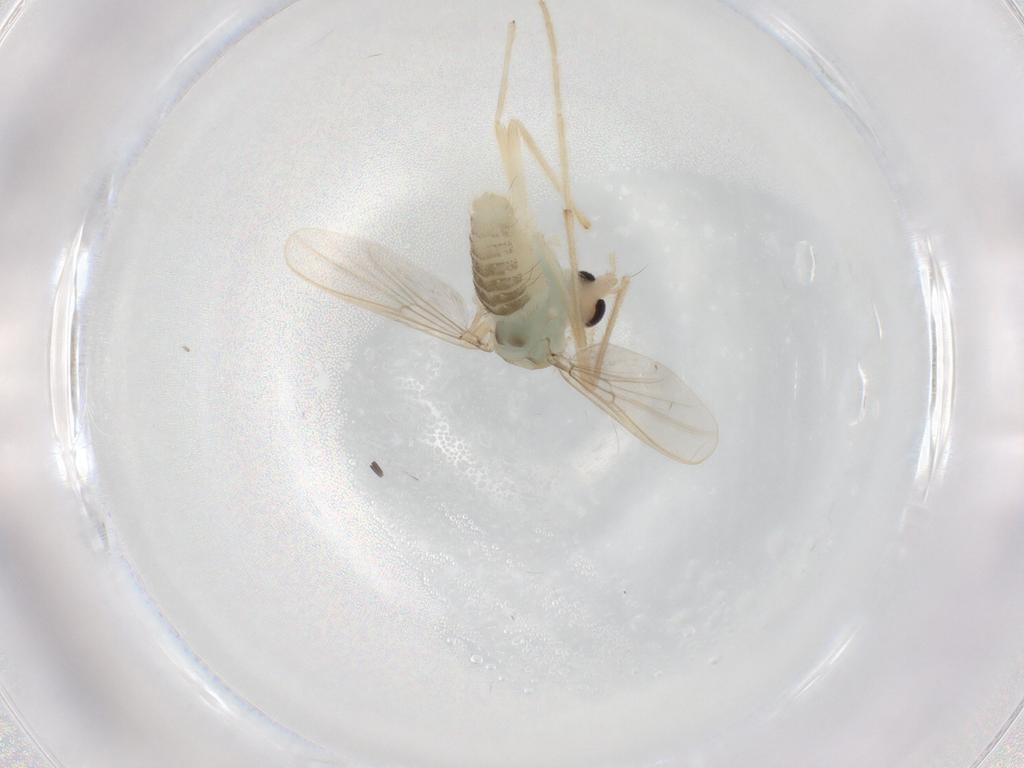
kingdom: Animalia
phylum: Arthropoda
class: Insecta
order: Diptera
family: Chironomidae
